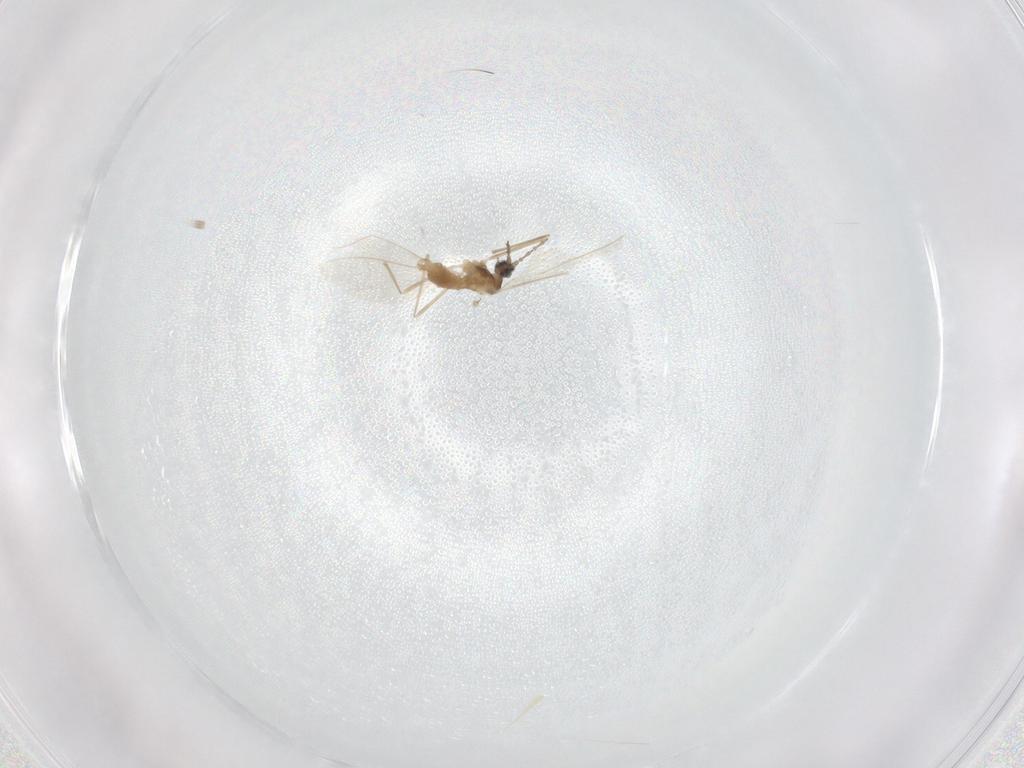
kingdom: Animalia
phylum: Arthropoda
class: Insecta
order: Diptera
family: Cecidomyiidae
